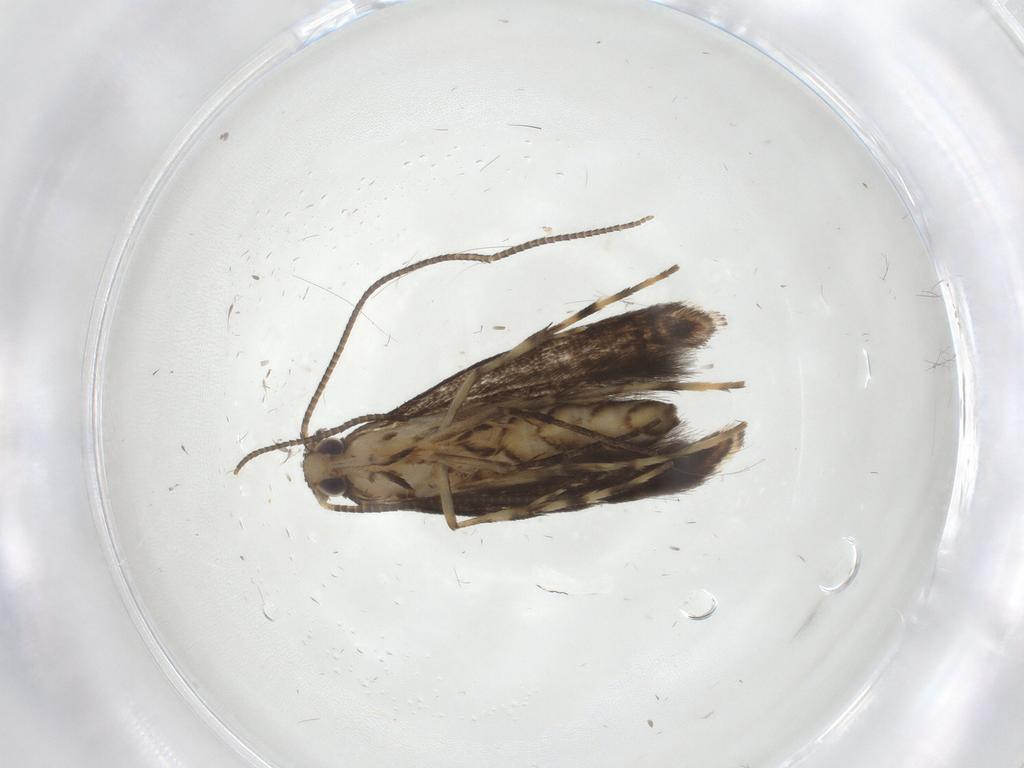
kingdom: Animalia
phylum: Arthropoda
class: Insecta
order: Lepidoptera
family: Gracillariidae
